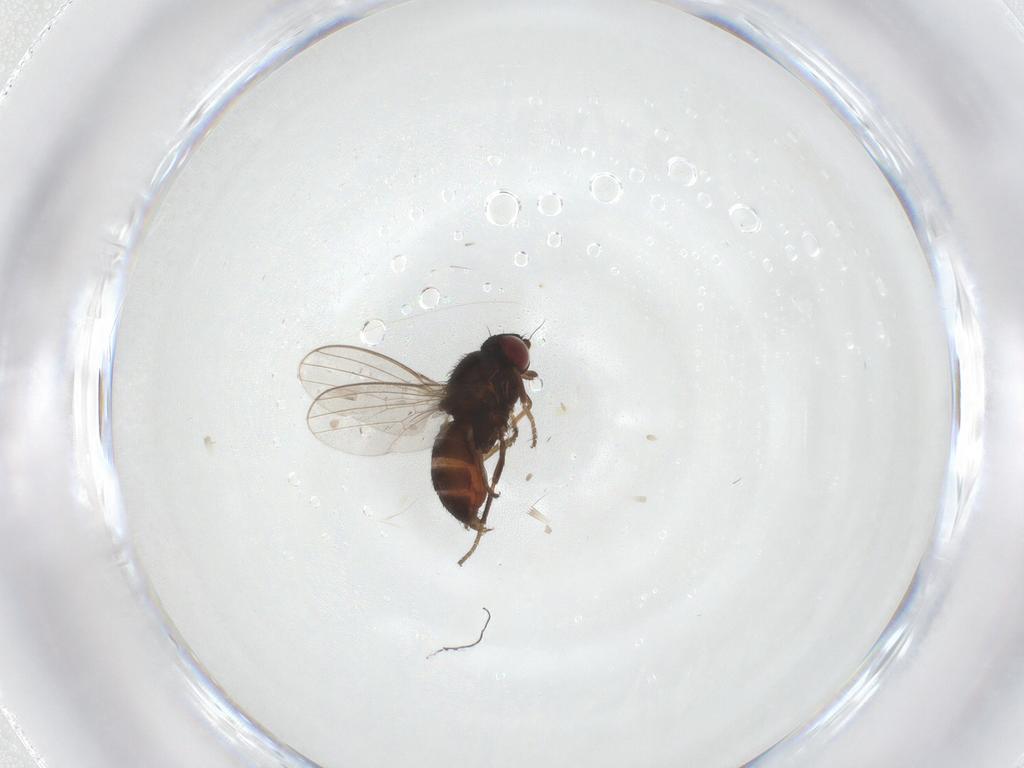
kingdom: Animalia
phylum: Arthropoda
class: Insecta
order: Diptera
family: Milichiidae
